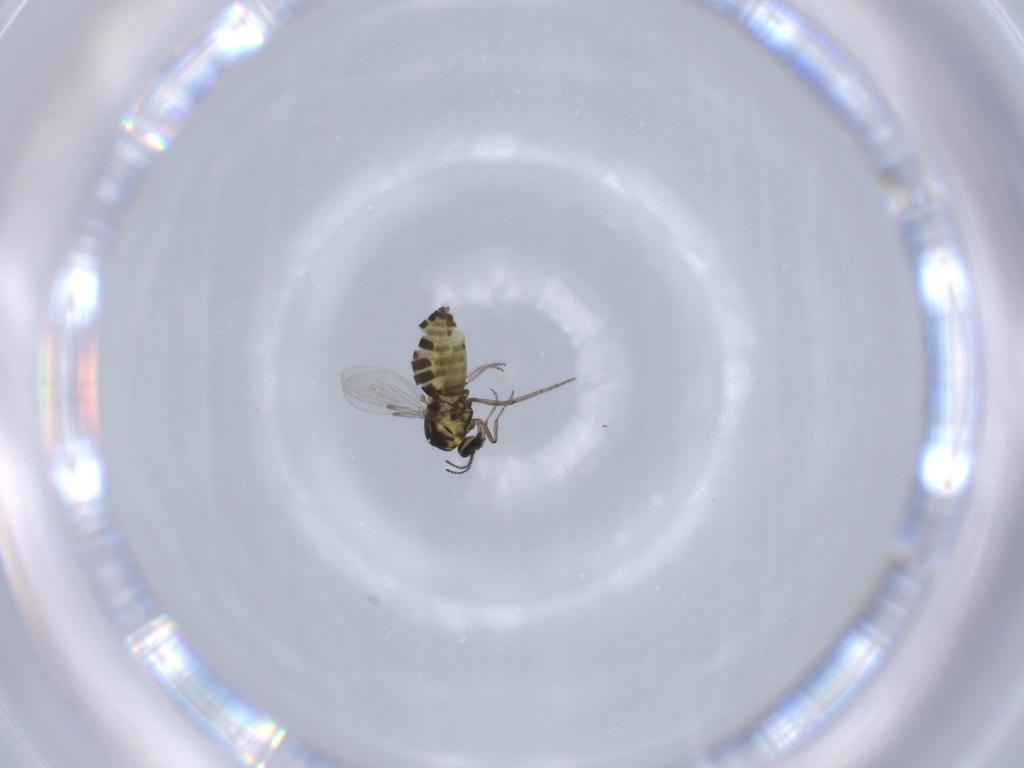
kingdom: Animalia
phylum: Arthropoda
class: Insecta
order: Diptera
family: Ceratopogonidae
